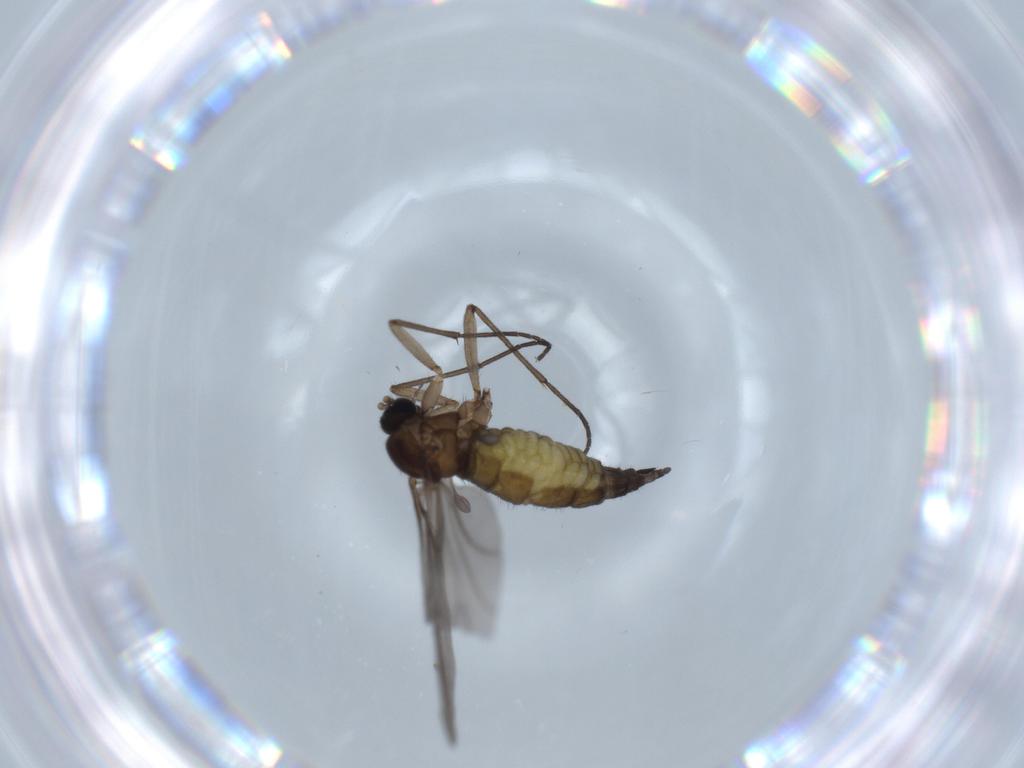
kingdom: Animalia
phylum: Arthropoda
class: Insecta
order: Diptera
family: Sciaridae
